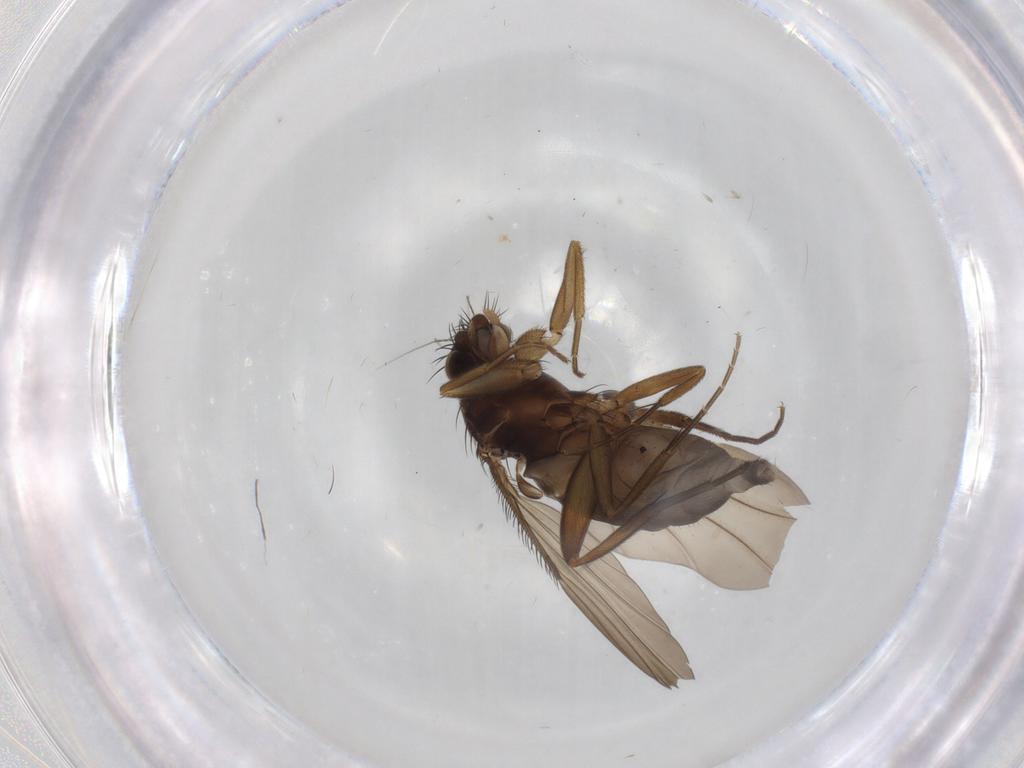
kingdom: Animalia
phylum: Arthropoda
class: Insecta
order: Diptera
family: Phoridae
